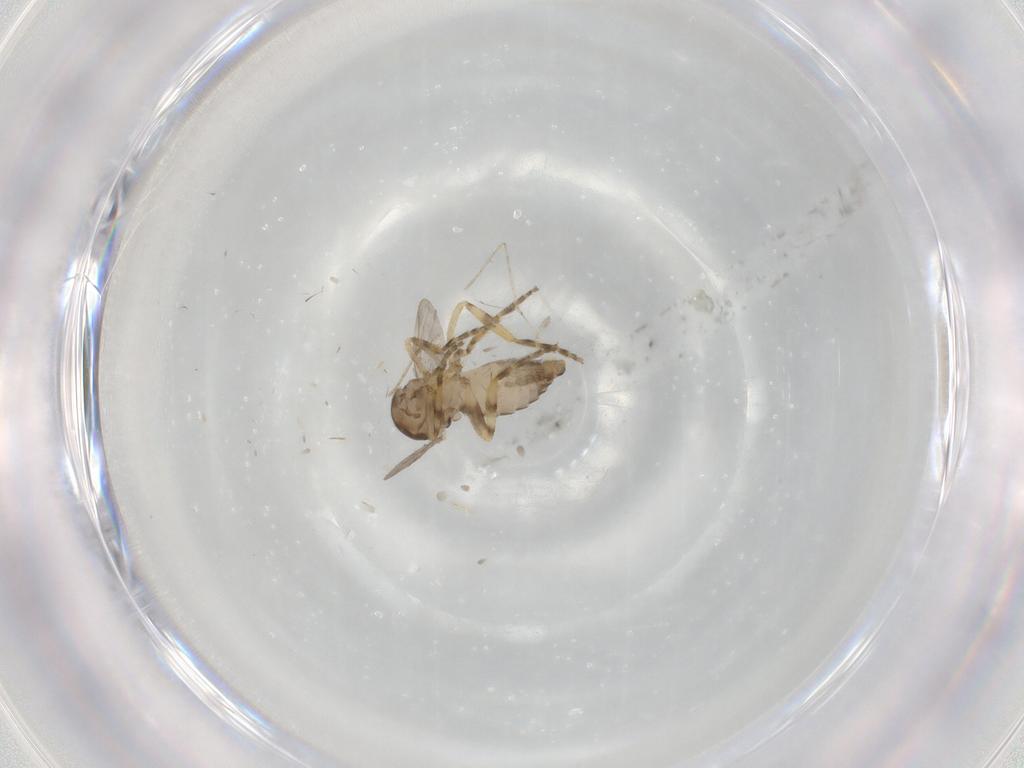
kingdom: Animalia
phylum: Arthropoda
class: Insecta
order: Diptera
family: Ceratopogonidae
